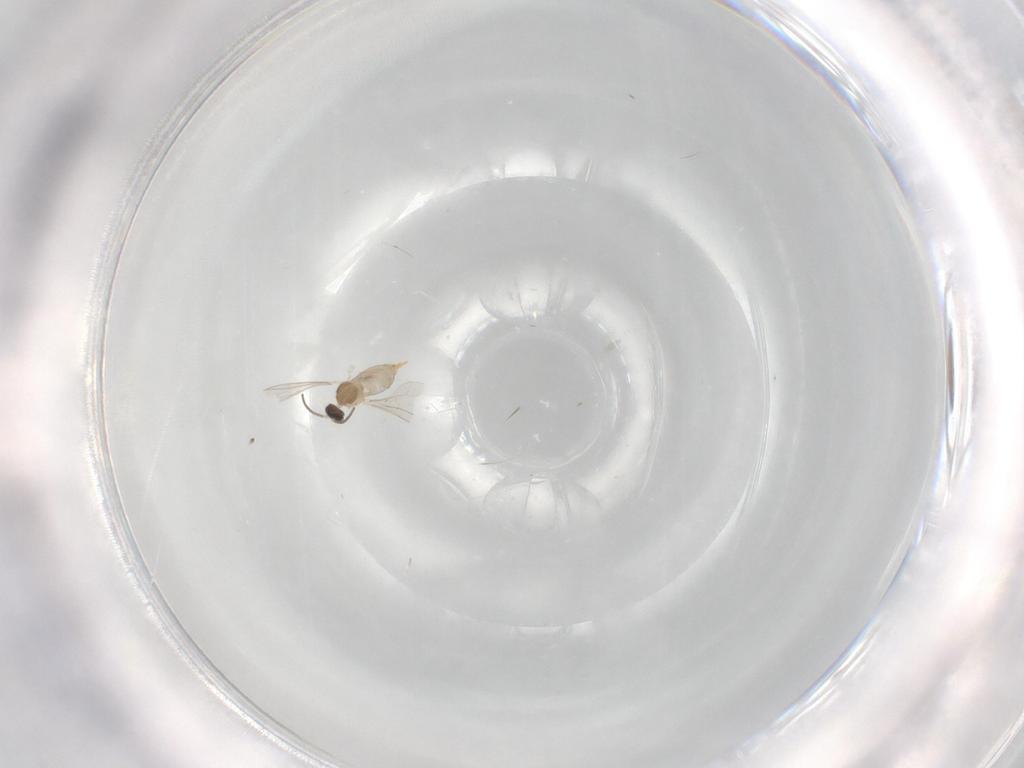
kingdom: Animalia
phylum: Arthropoda
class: Insecta
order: Diptera
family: Cecidomyiidae
